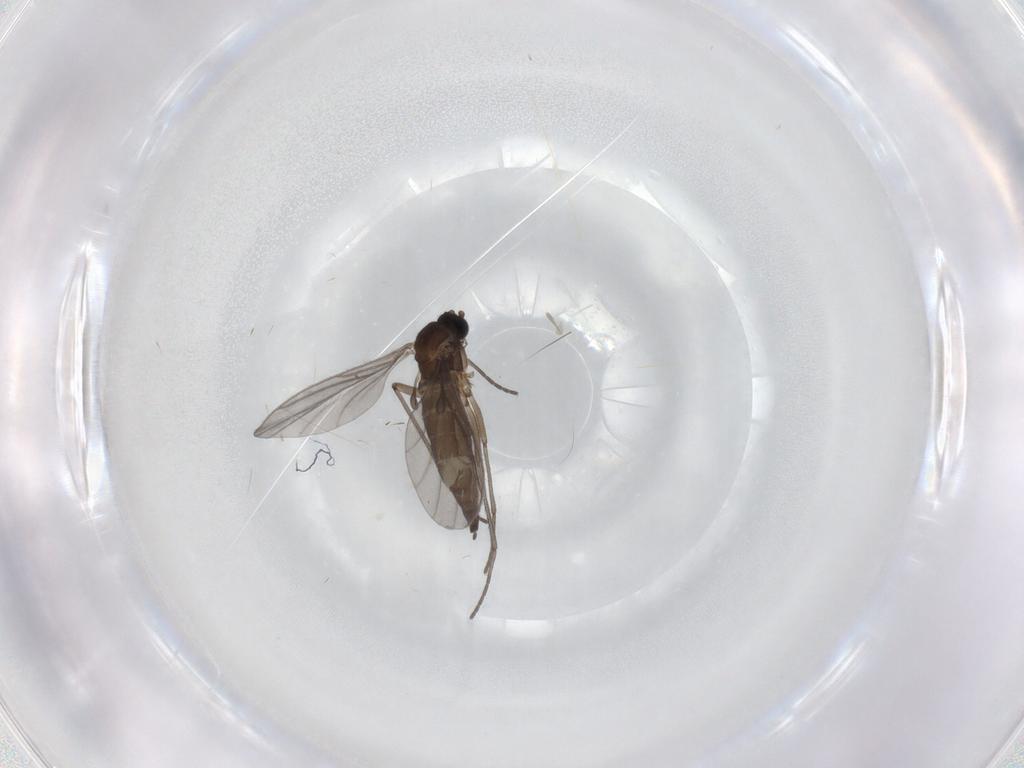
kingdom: Animalia
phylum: Arthropoda
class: Insecta
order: Diptera
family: Sciaridae
